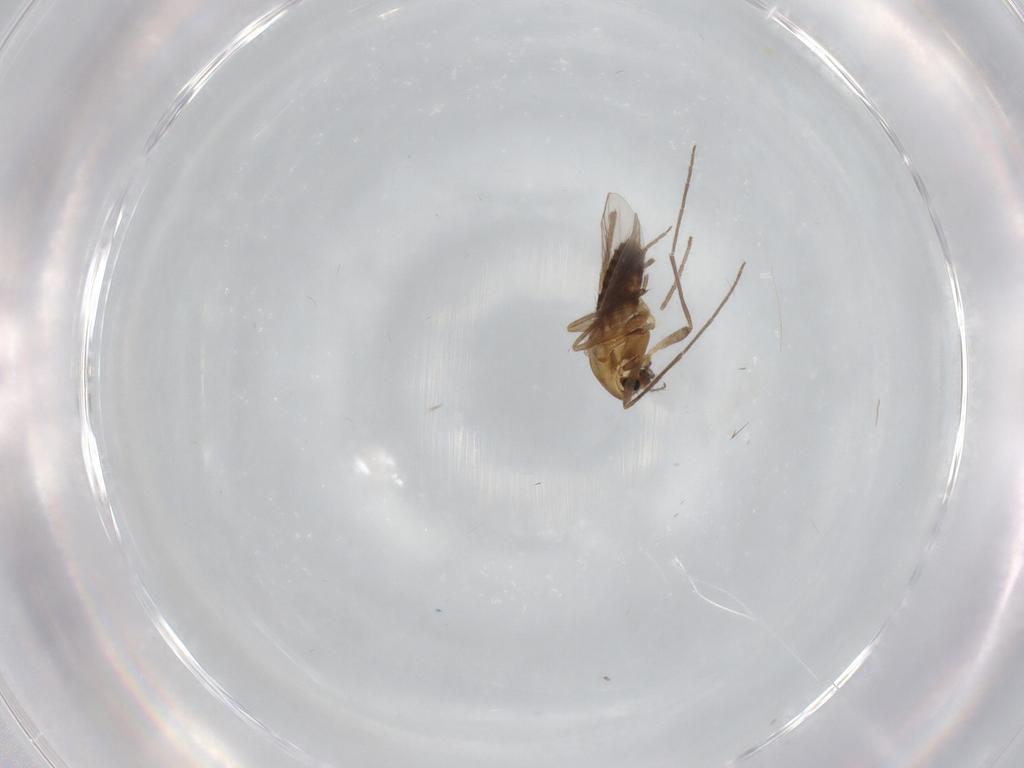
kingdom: Animalia
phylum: Arthropoda
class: Insecta
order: Diptera
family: Chironomidae
